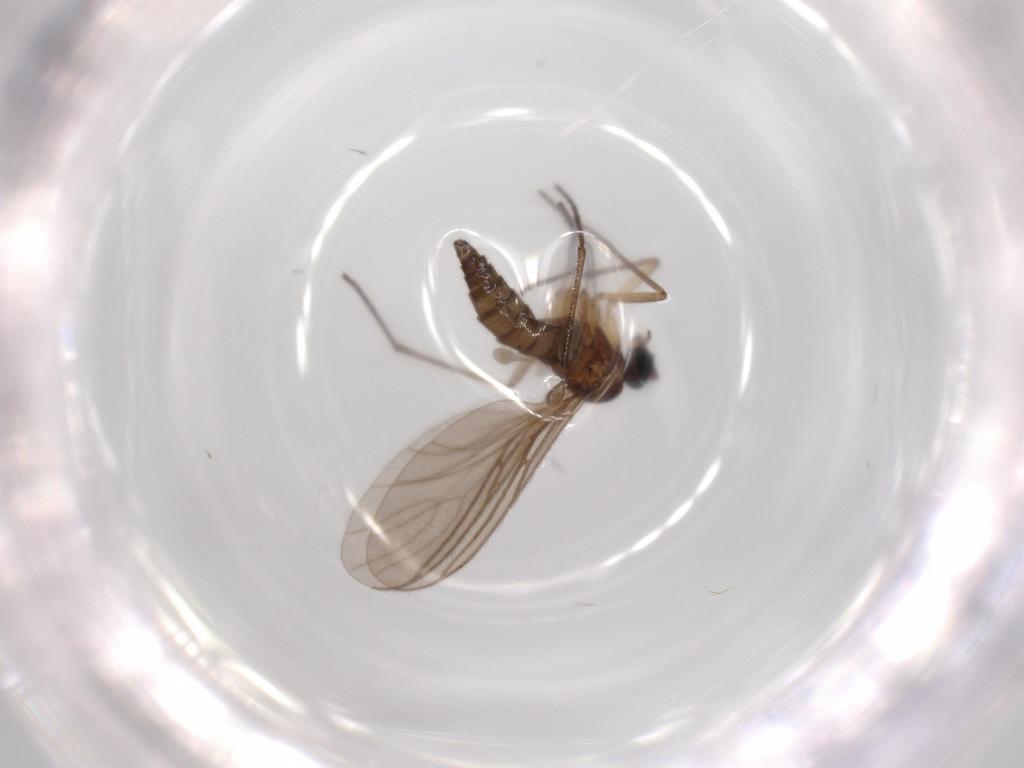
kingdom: Animalia
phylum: Arthropoda
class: Insecta
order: Diptera
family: Sciaridae
